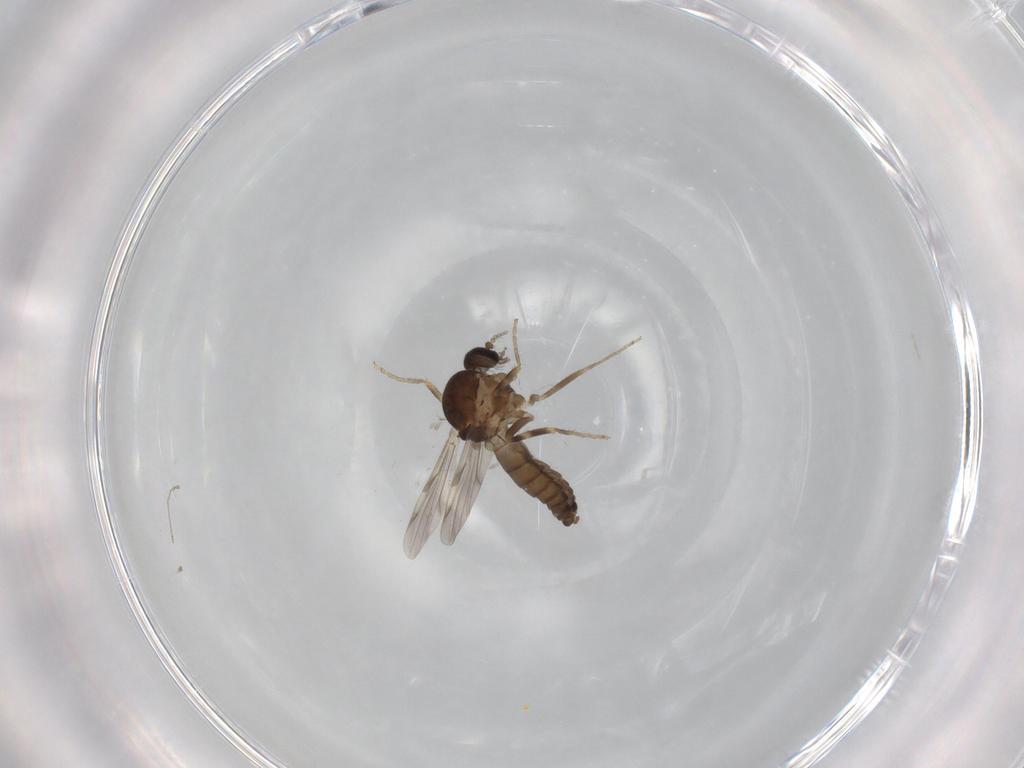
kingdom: Animalia
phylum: Arthropoda
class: Insecta
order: Diptera
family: Ceratopogonidae
